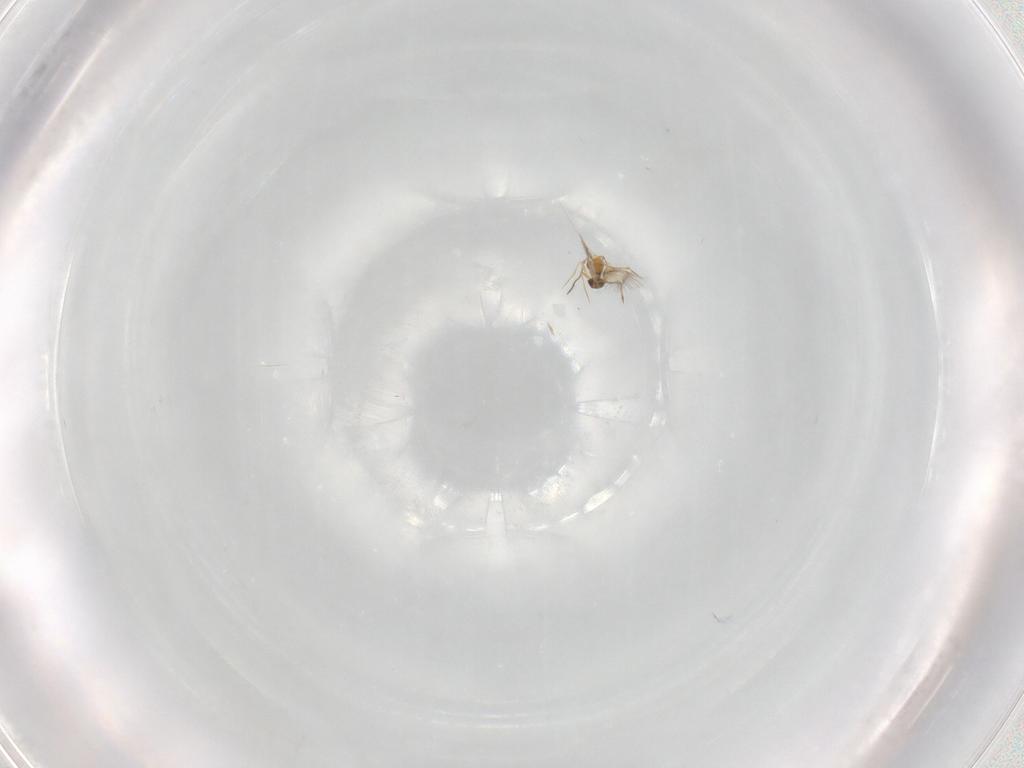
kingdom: Animalia
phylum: Arthropoda
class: Insecta
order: Hymenoptera
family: Mymarommatidae
